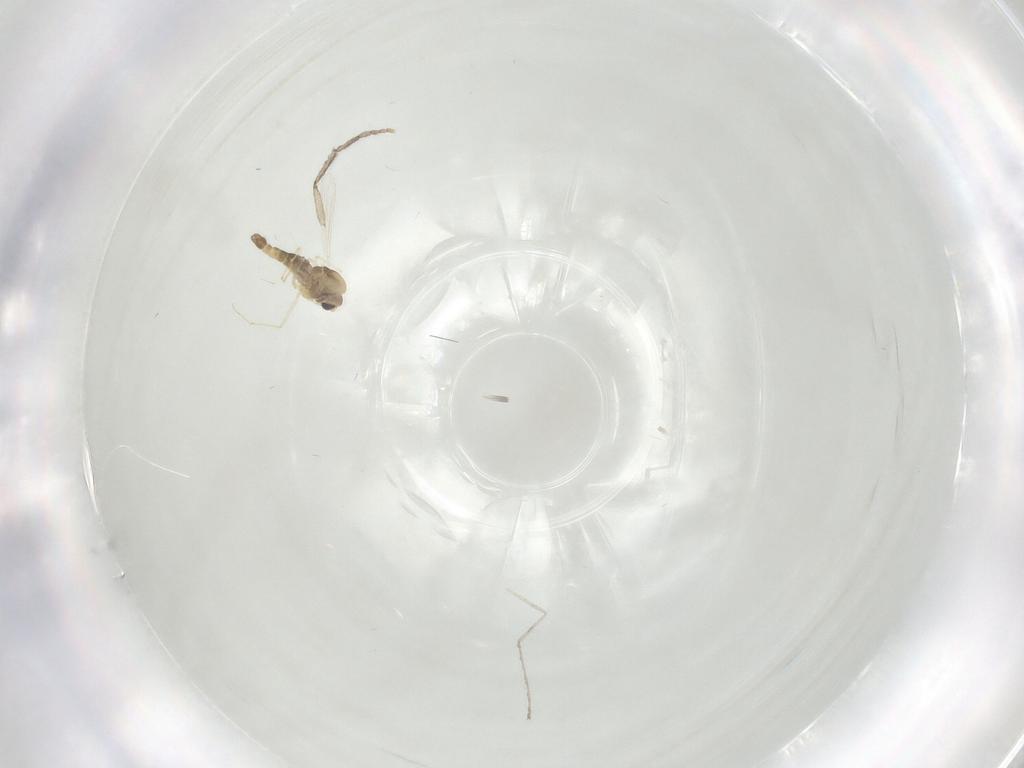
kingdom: Animalia
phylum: Arthropoda
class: Insecta
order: Diptera
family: Chironomidae
